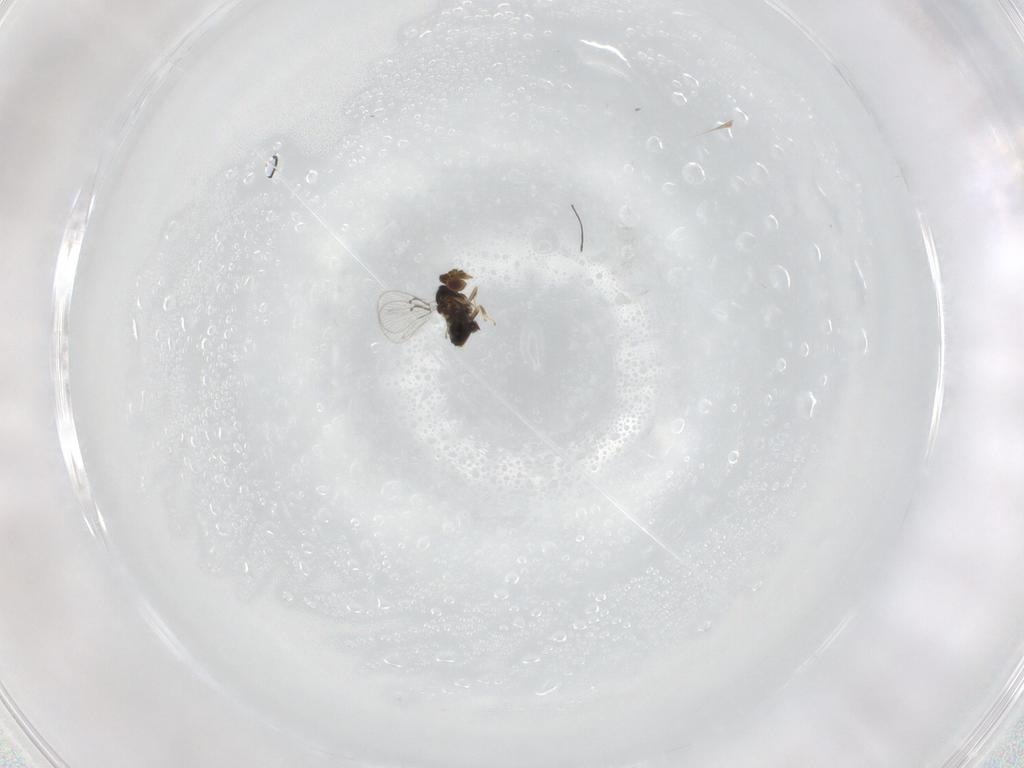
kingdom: Animalia
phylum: Arthropoda
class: Insecta
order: Hymenoptera
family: Trichogrammatidae
